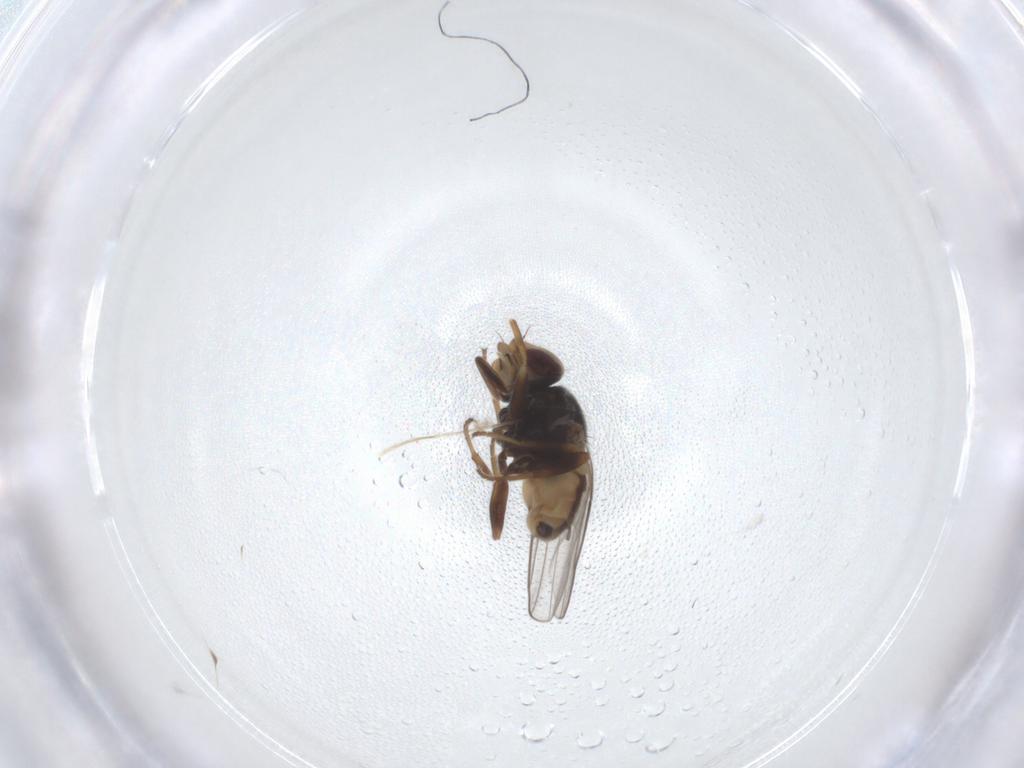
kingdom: Animalia
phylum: Arthropoda
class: Insecta
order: Diptera
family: Chloropidae
